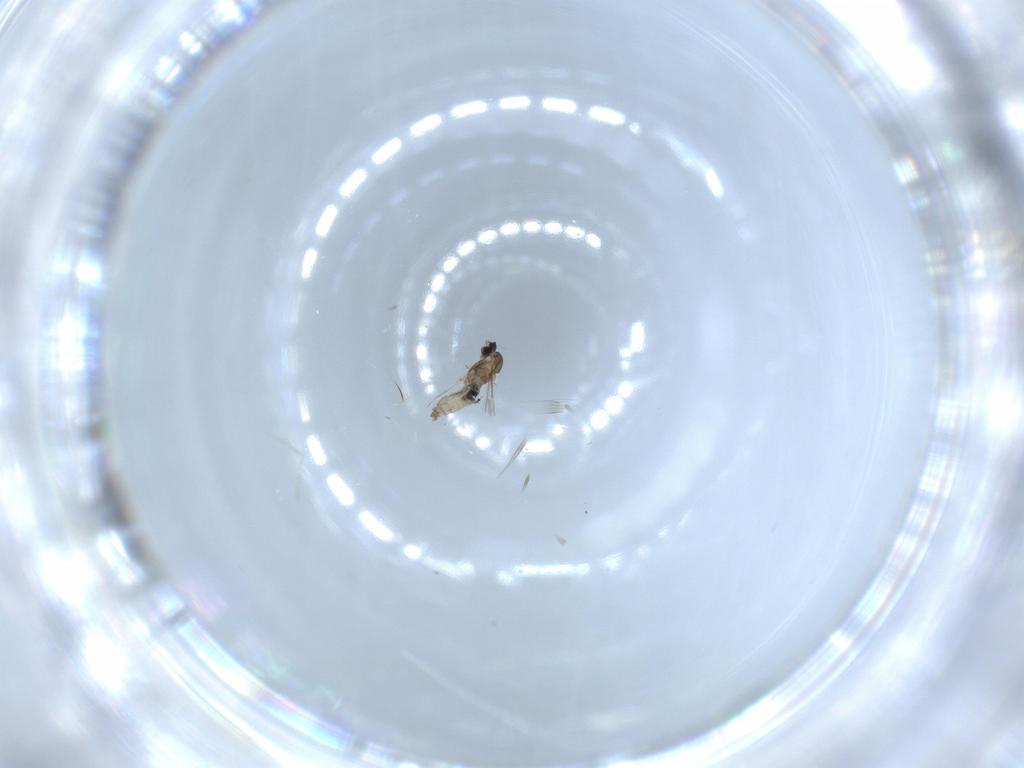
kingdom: Animalia
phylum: Arthropoda
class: Insecta
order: Diptera
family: Cecidomyiidae
